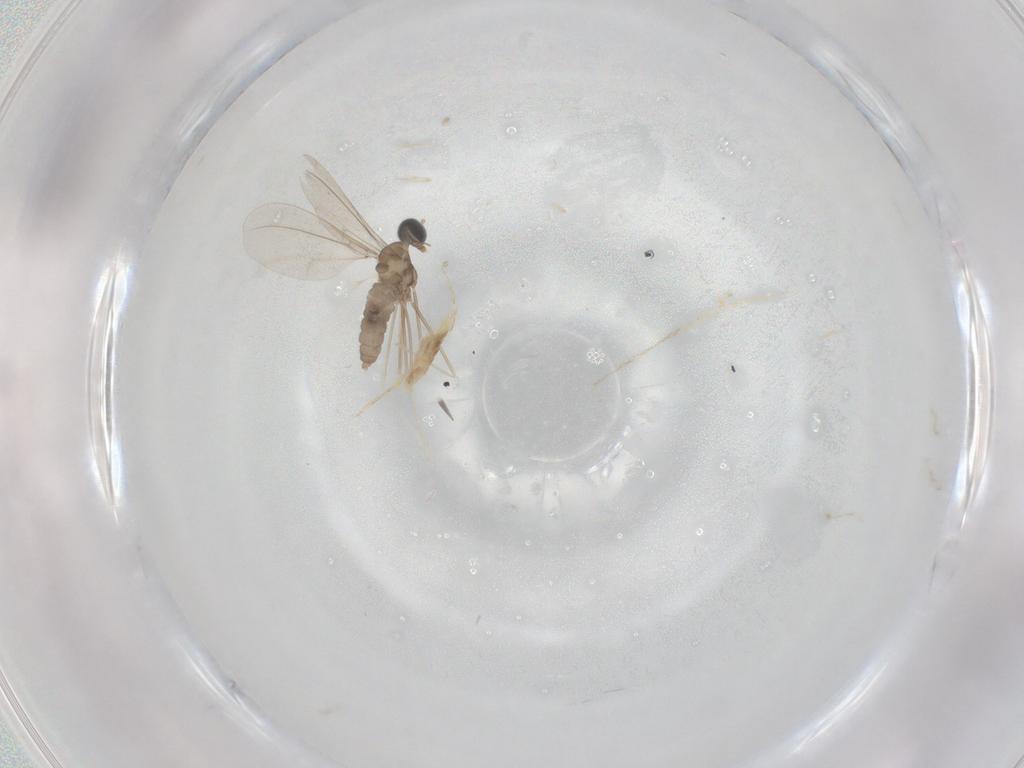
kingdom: Animalia
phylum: Arthropoda
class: Insecta
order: Diptera
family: Cecidomyiidae
